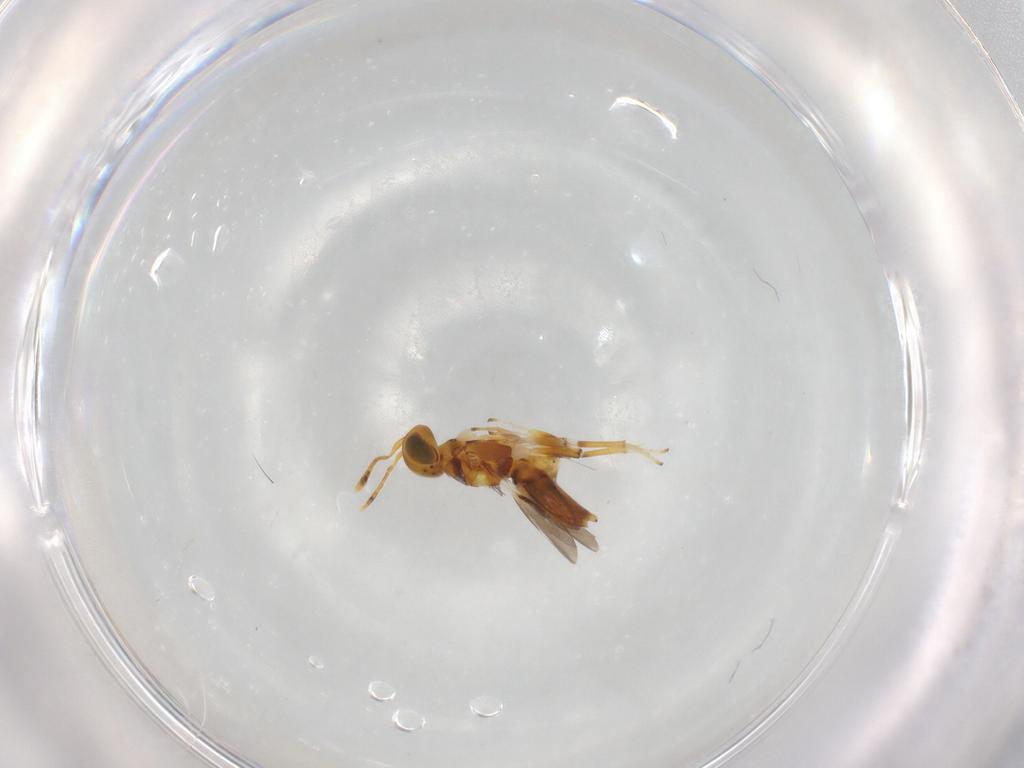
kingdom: Animalia
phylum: Arthropoda
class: Insecta
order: Hymenoptera
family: Encyrtidae
